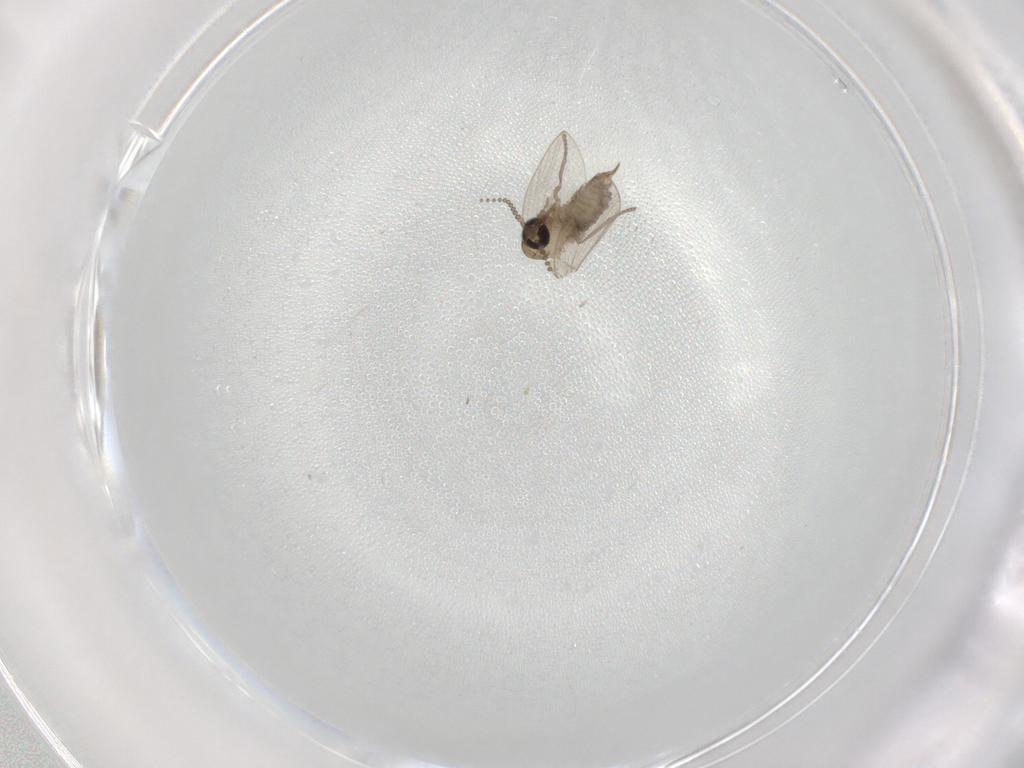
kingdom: Animalia
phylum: Arthropoda
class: Insecta
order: Diptera
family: Psychodidae
